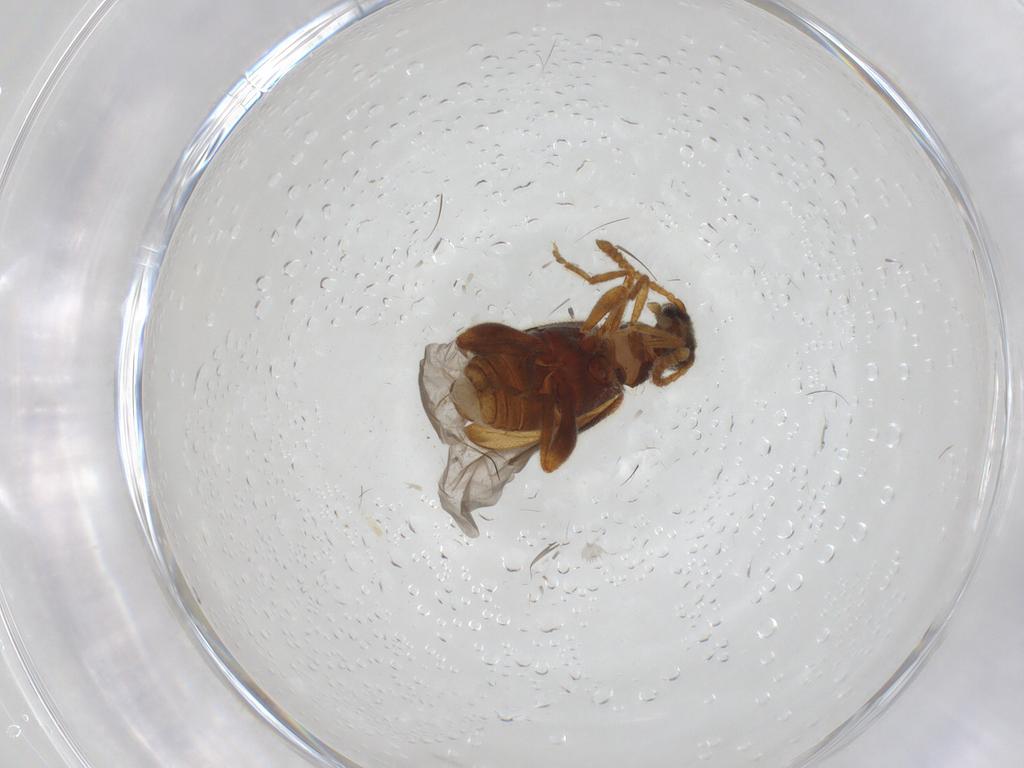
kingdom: Animalia
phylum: Arthropoda
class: Insecta
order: Coleoptera
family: Aderidae
